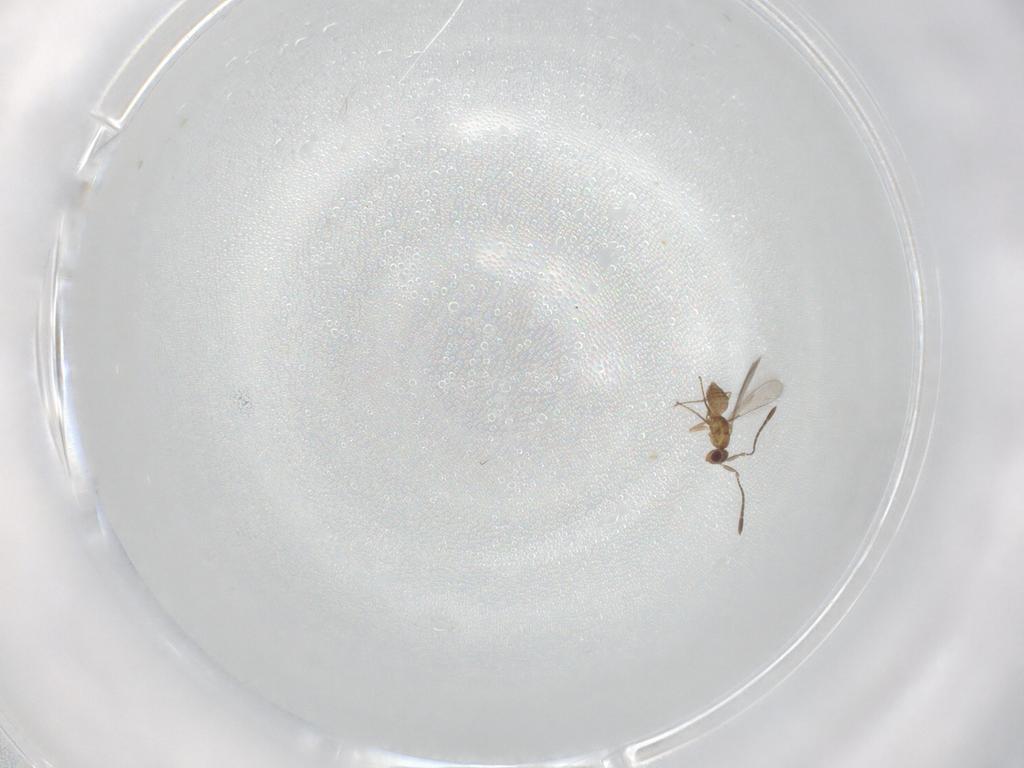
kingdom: Animalia
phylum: Arthropoda
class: Insecta
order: Hymenoptera
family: Mymaridae
